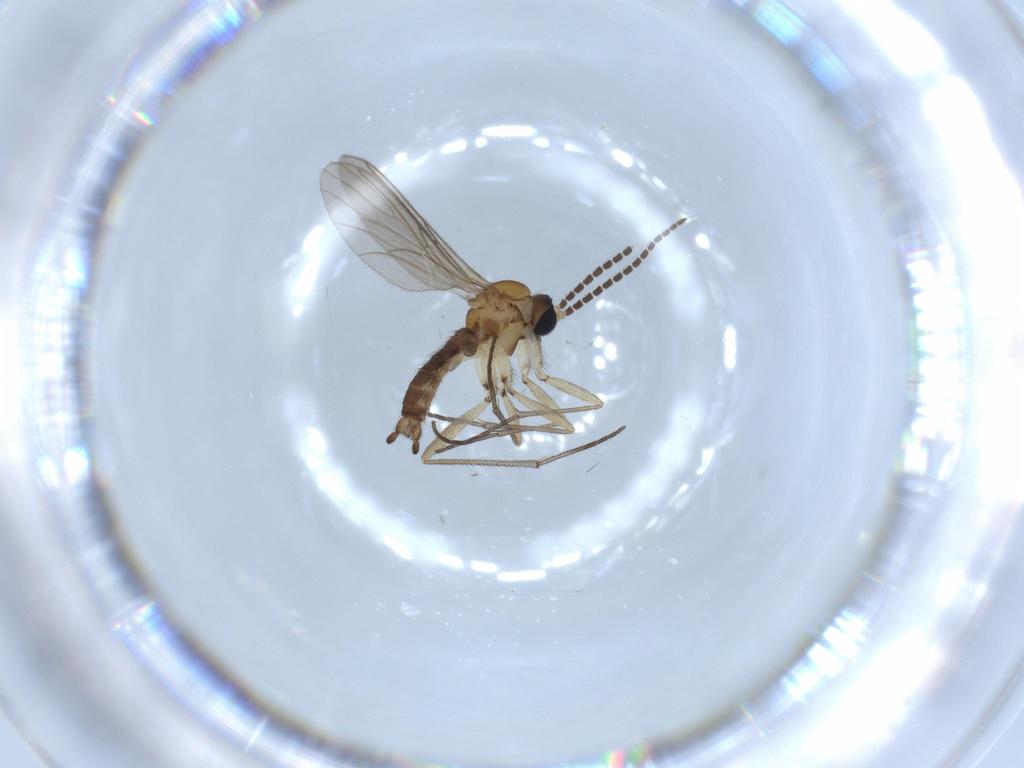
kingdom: Animalia
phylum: Arthropoda
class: Insecta
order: Diptera
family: Sciaridae
